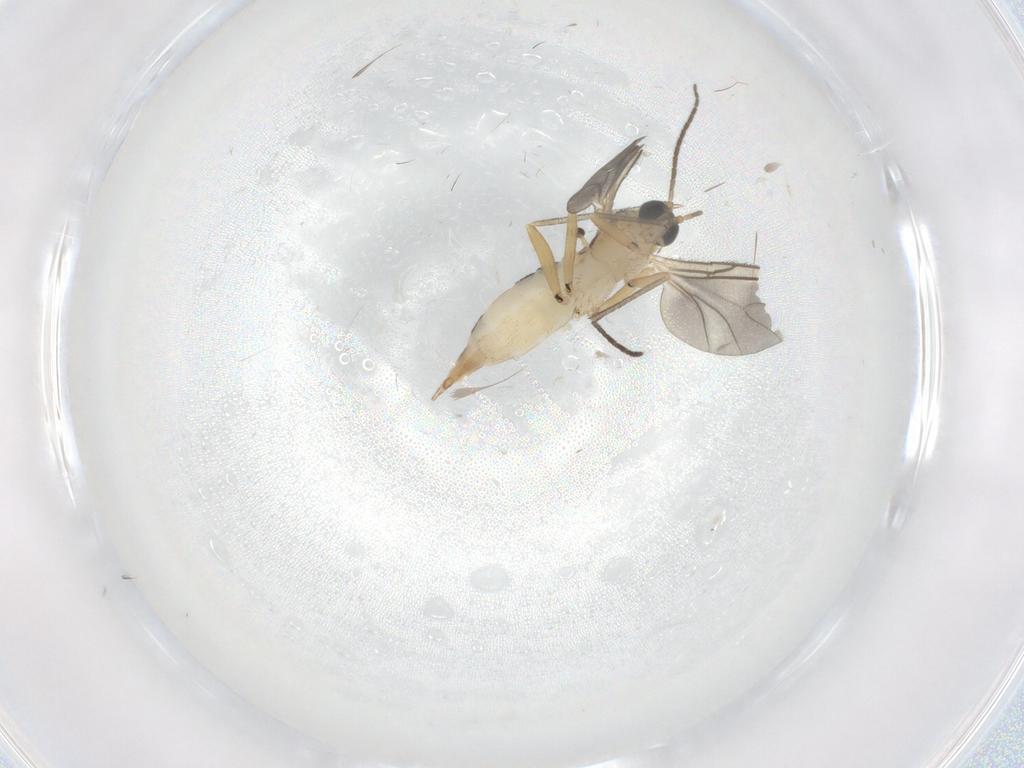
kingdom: Animalia
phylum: Arthropoda
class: Insecta
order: Diptera
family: Sciaridae
